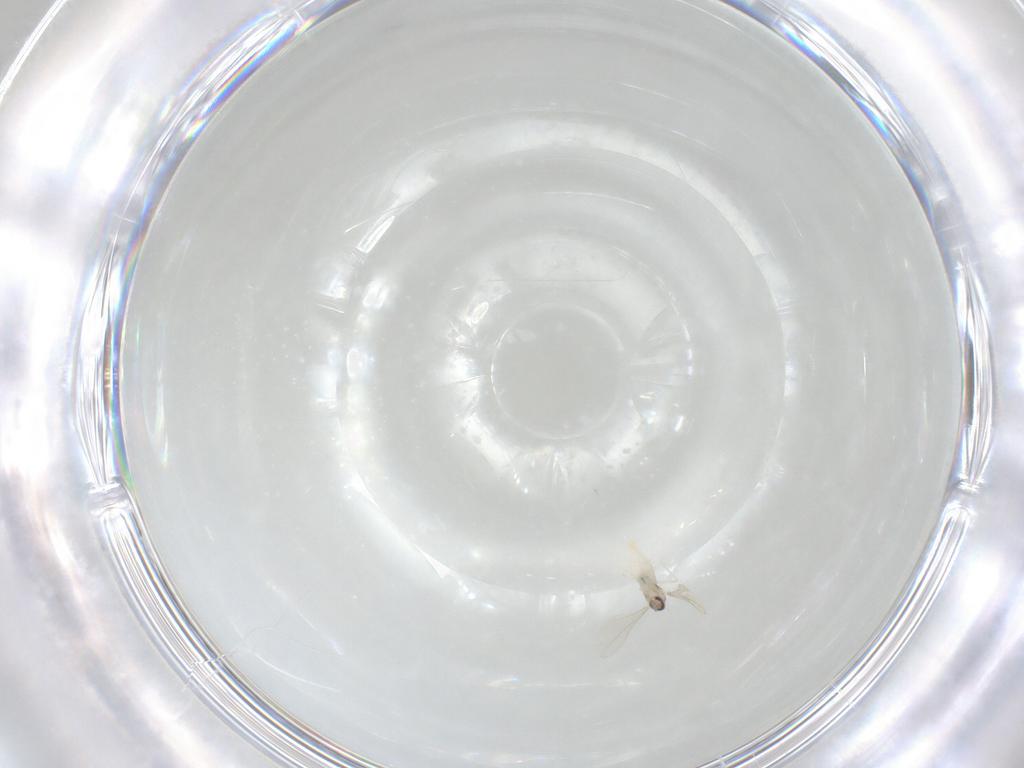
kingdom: Animalia
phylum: Arthropoda
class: Insecta
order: Diptera
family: Cecidomyiidae
